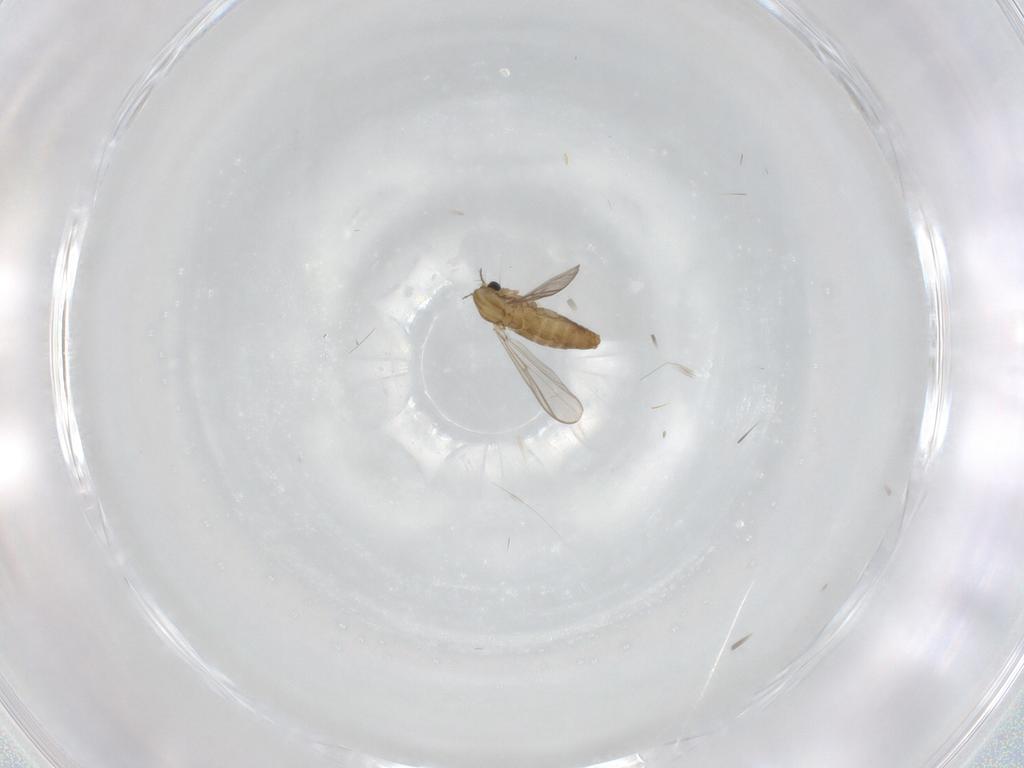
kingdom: Animalia
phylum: Arthropoda
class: Insecta
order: Diptera
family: Chironomidae
